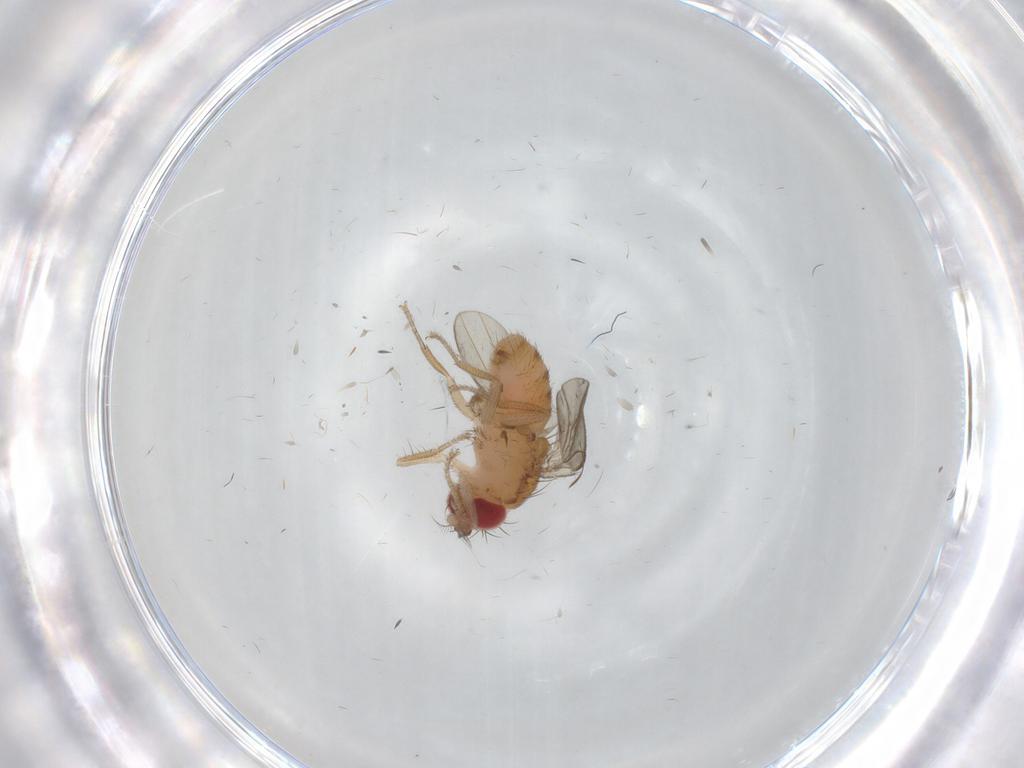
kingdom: Animalia
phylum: Arthropoda
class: Insecta
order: Diptera
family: Drosophilidae
